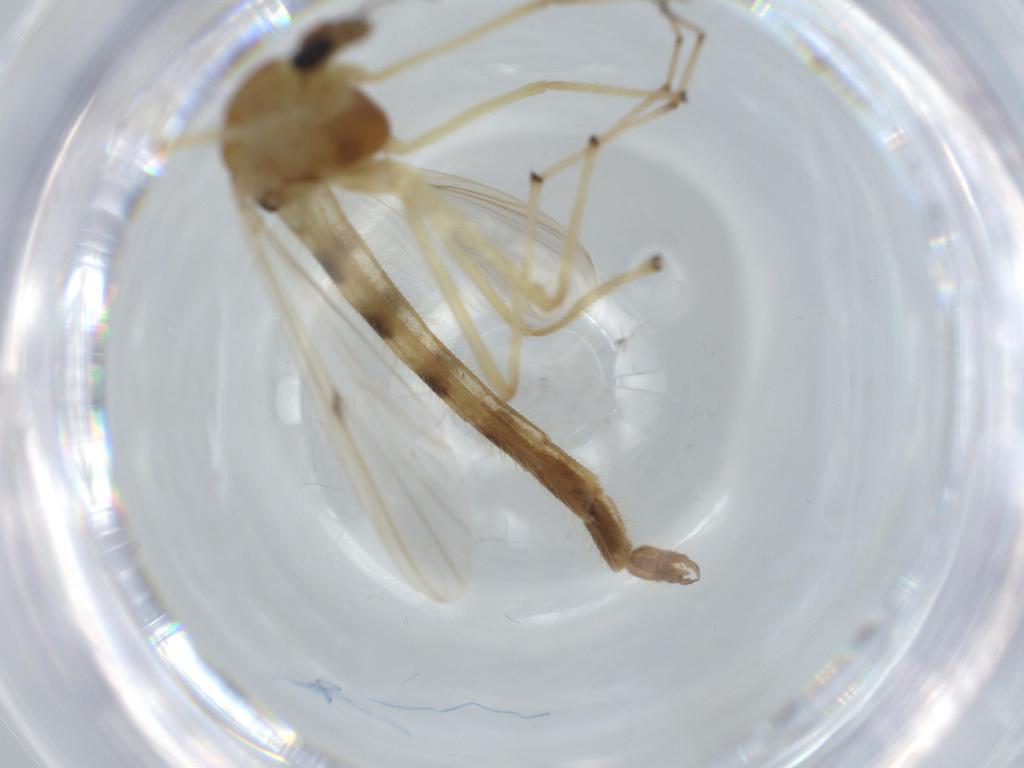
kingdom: Animalia
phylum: Arthropoda
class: Insecta
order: Diptera
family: Chironomidae
